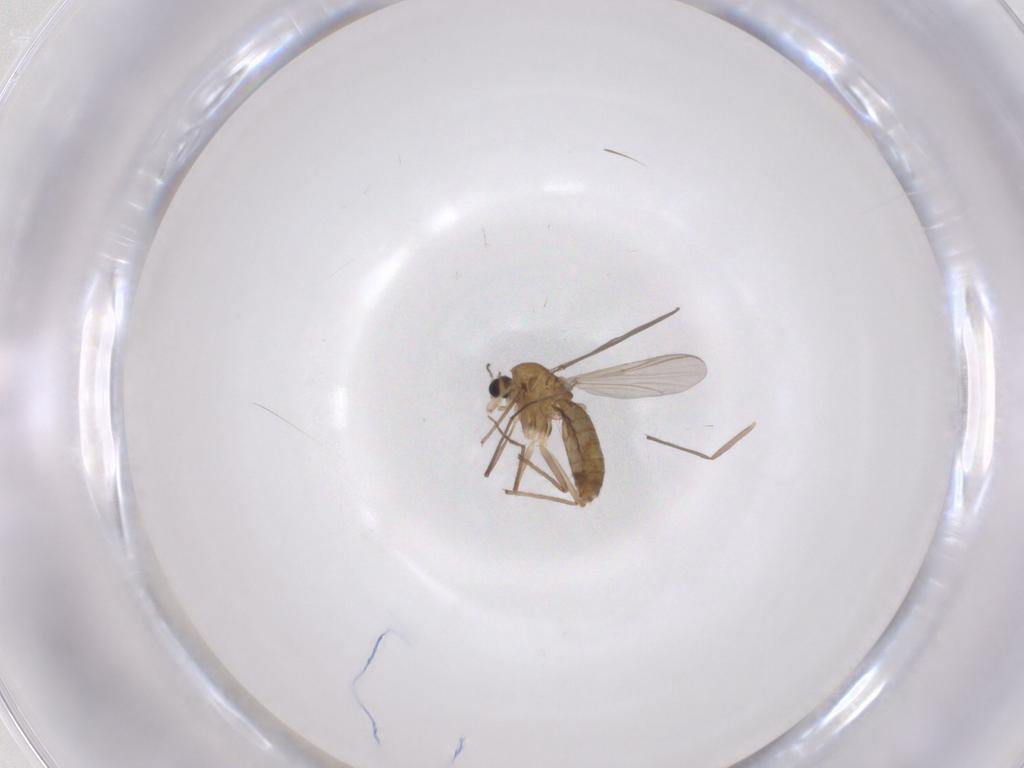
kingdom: Animalia
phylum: Arthropoda
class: Insecta
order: Diptera
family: Chironomidae
